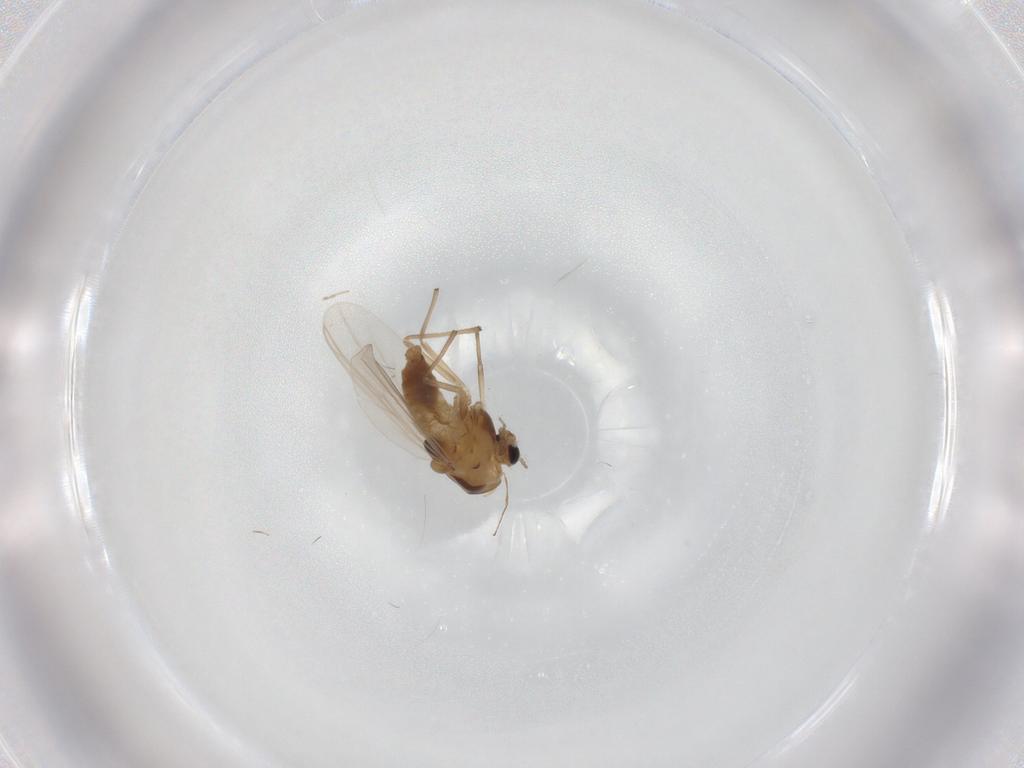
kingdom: Animalia
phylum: Arthropoda
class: Insecta
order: Diptera
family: Chironomidae
